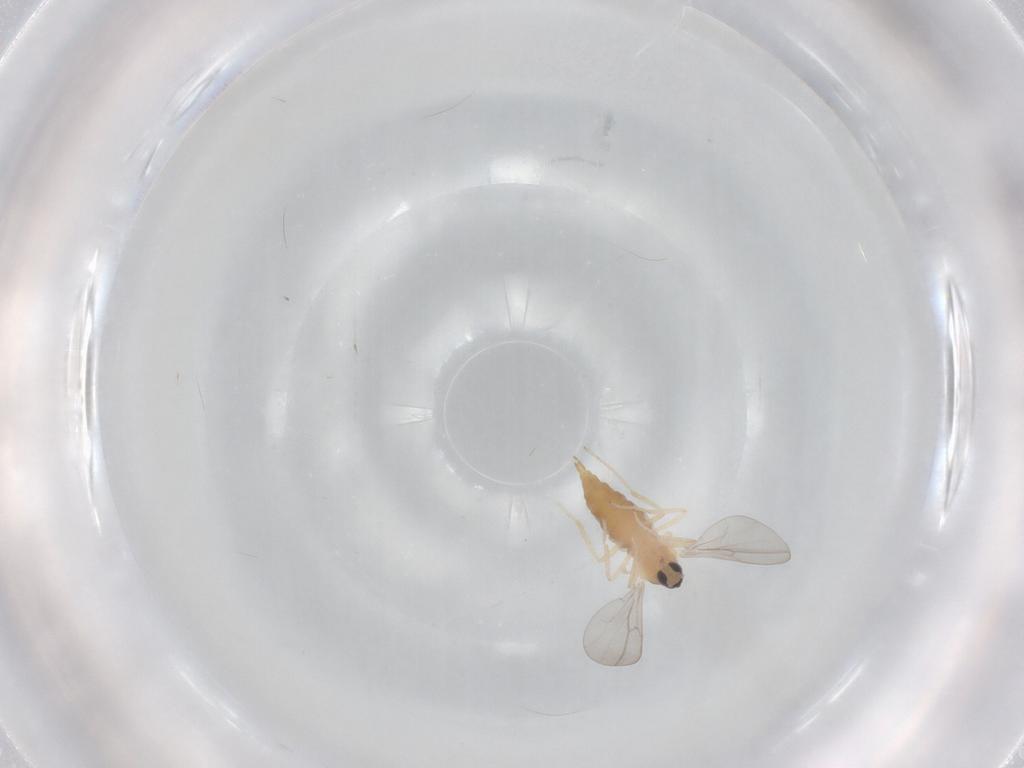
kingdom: Animalia
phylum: Arthropoda
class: Insecta
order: Diptera
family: Cecidomyiidae
